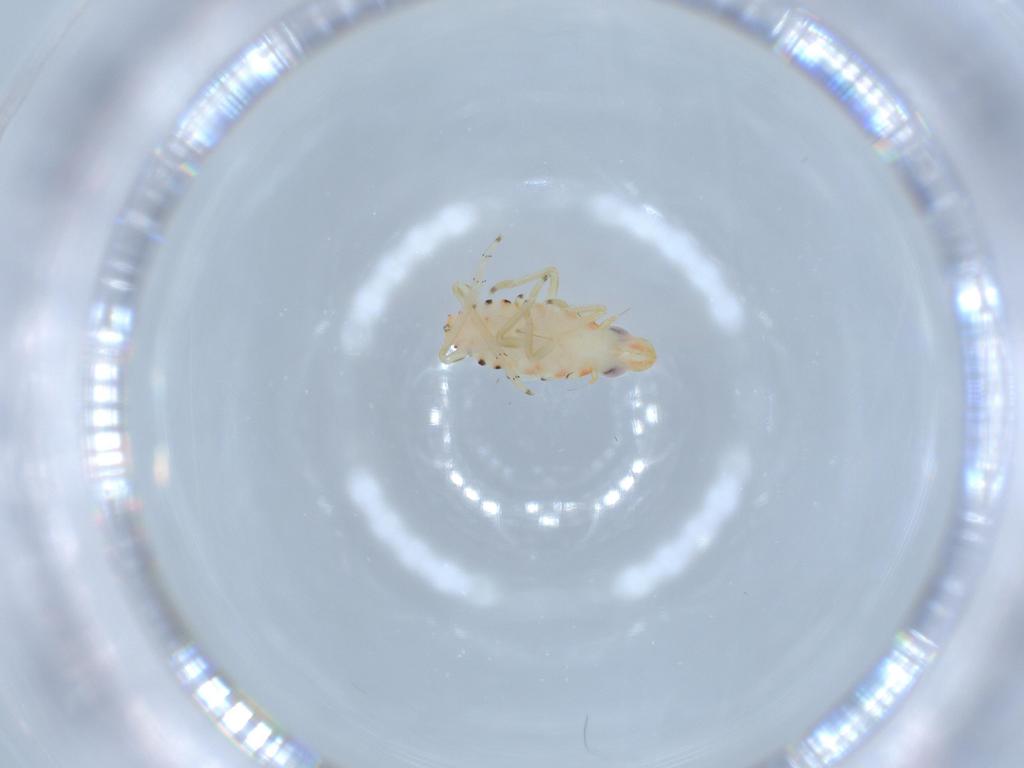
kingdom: Animalia
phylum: Arthropoda
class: Insecta
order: Hemiptera
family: Tropiduchidae
